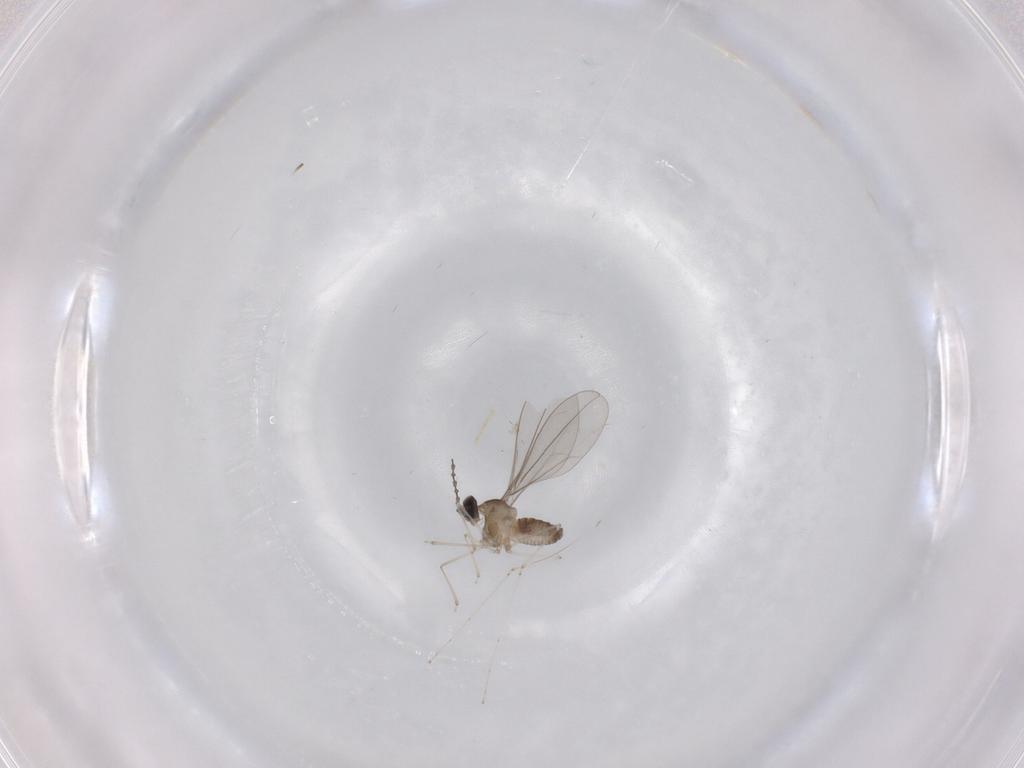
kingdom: Animalia
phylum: Arthropoda
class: Insecta
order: Diptera
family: Cecidomyiidae
